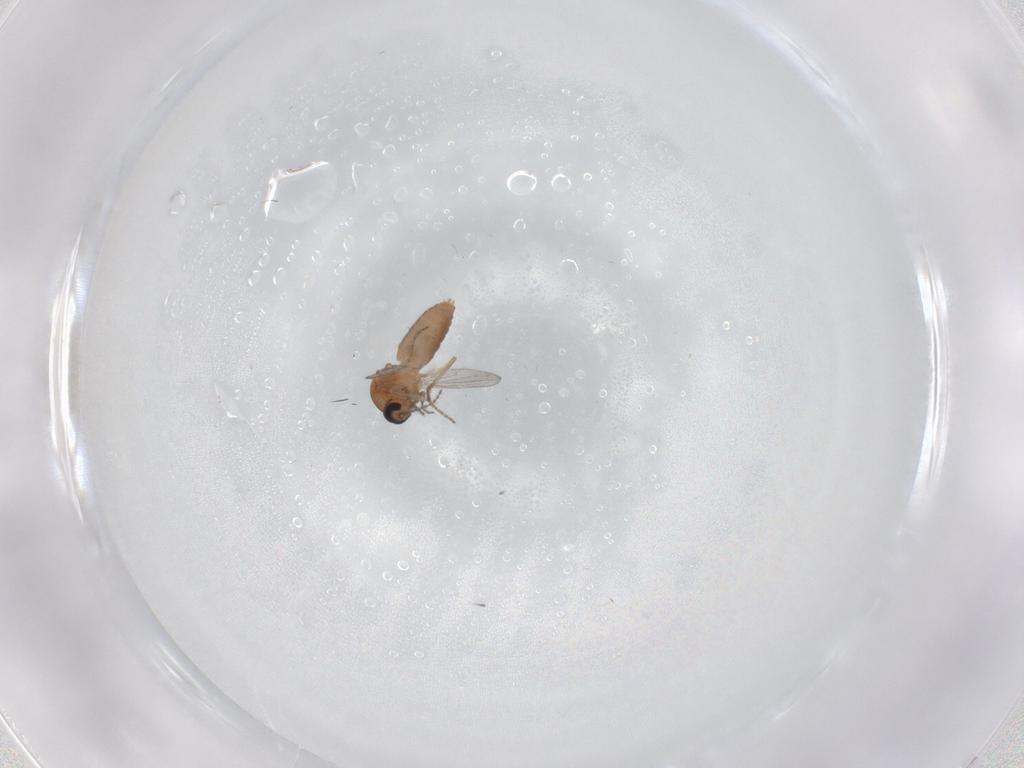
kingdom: Animalia
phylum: Arthropoda
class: Insecta
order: Diptera
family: Ceratopogonidae
